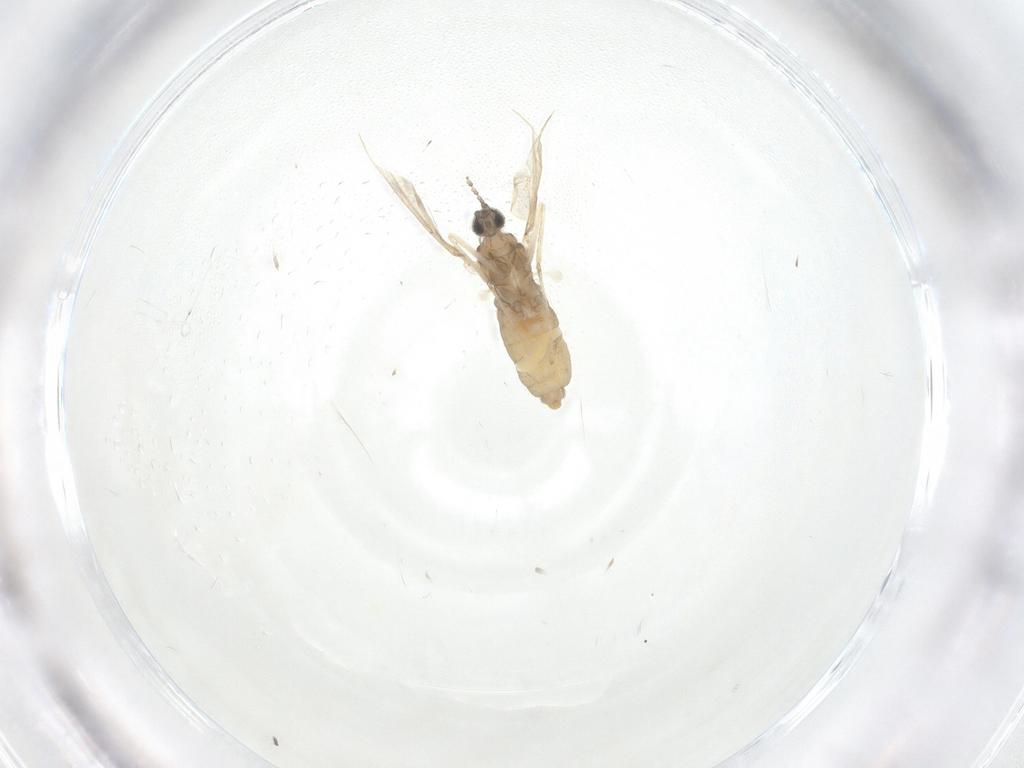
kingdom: Animalia
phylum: Arthropoda
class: Insecta
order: Diptera
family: Cecidomyiidae
